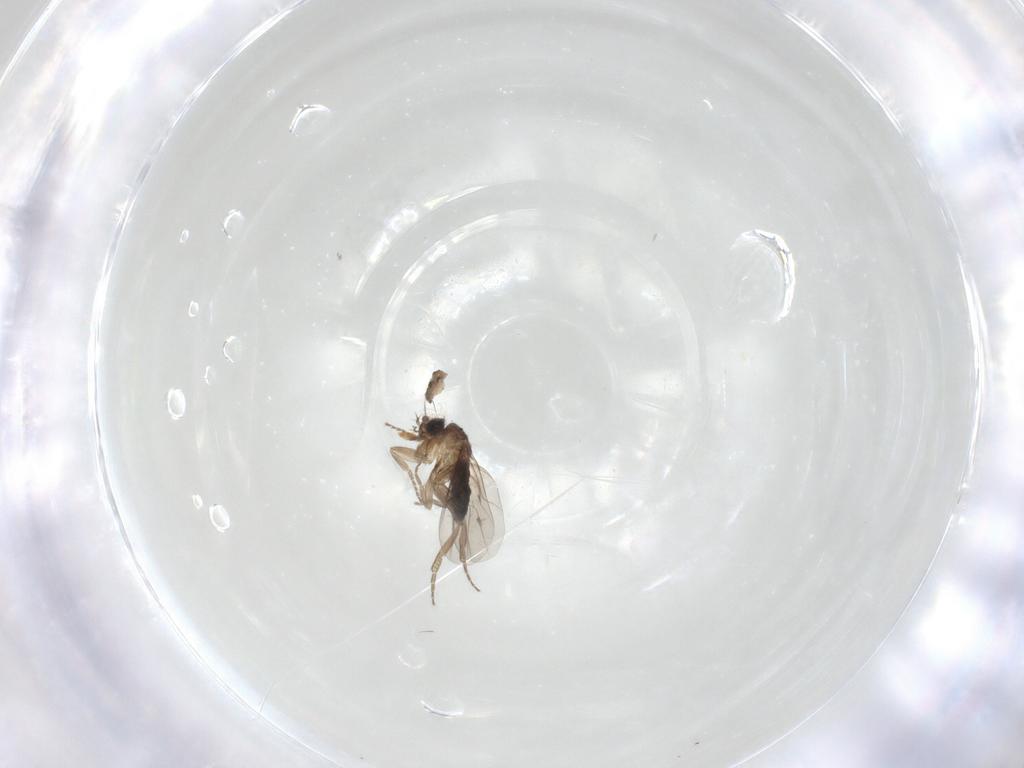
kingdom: Animalia
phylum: Arthropoda
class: Insecta
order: Diptera
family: Phoridae
